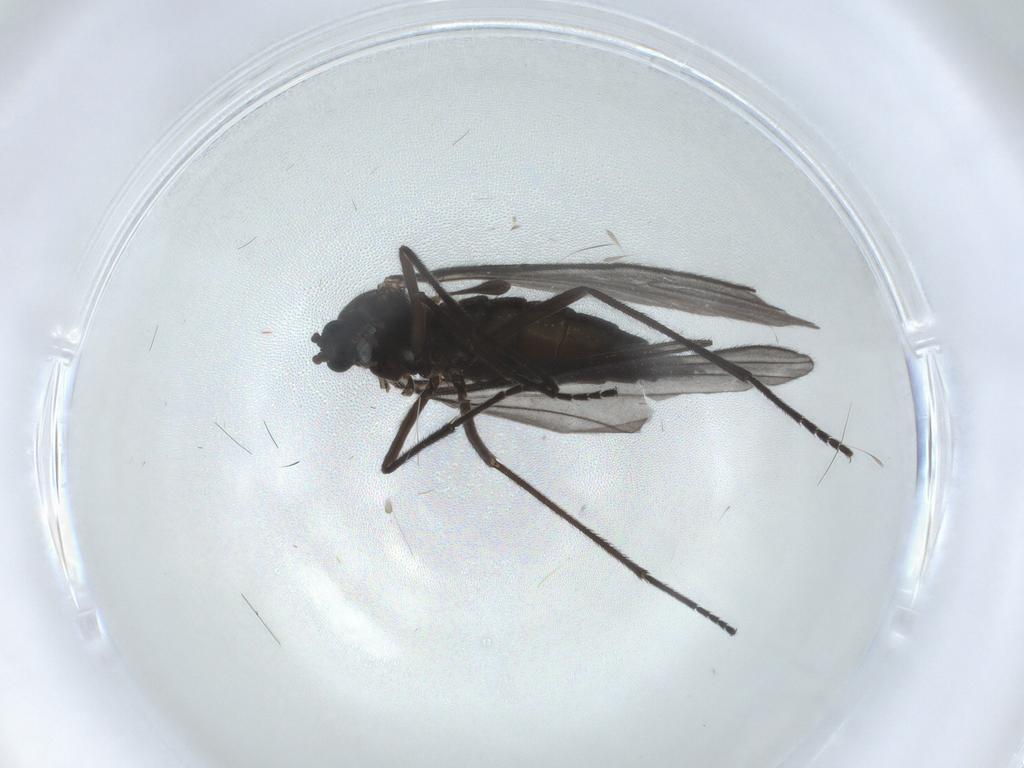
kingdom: Animalia
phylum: Arthropoda
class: Insecta
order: Diptera
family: Sciaridae
